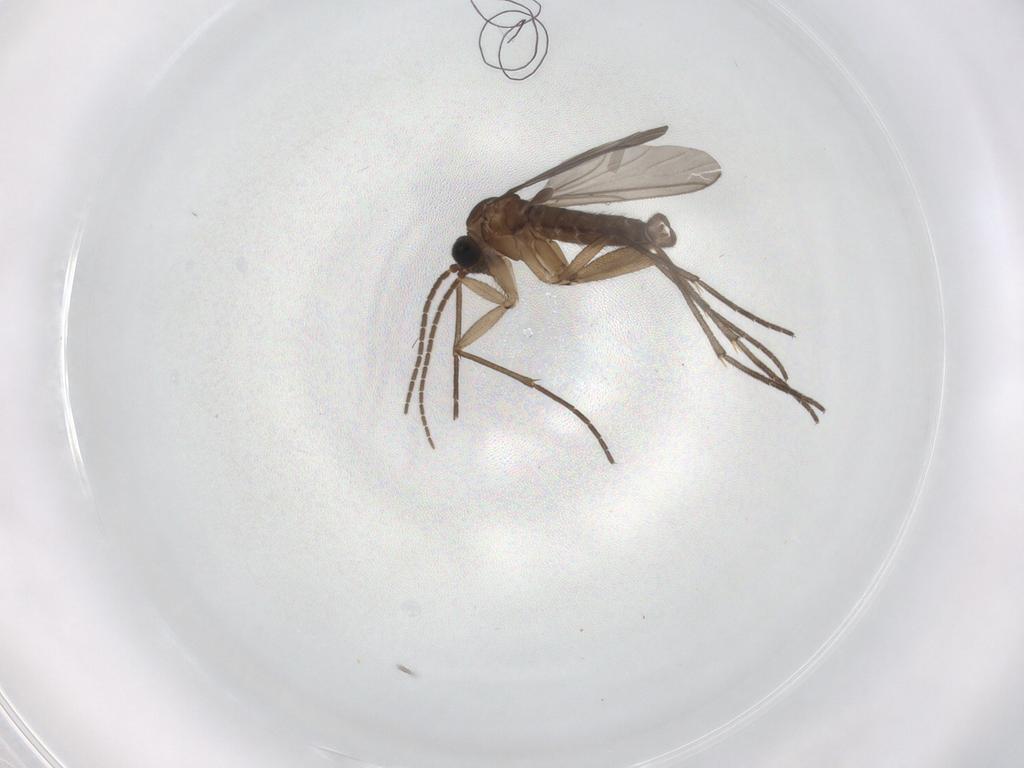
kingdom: Animalia
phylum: Arthropoda
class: Insecta
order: Diptera
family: Sciaridae
